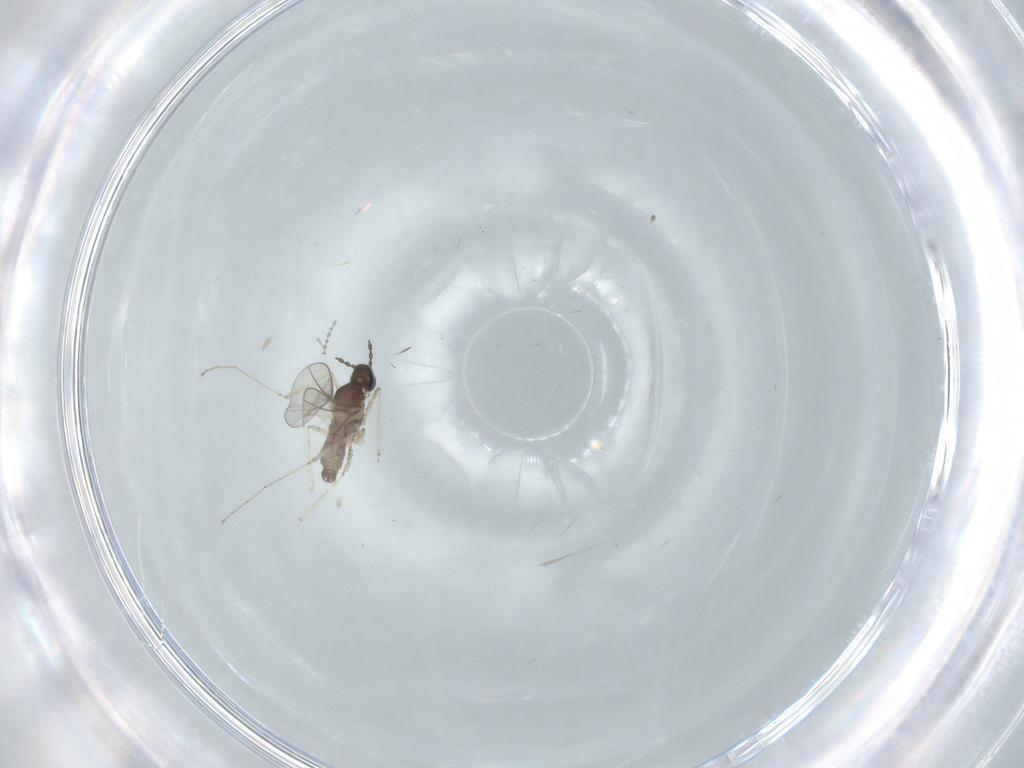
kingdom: Animalia
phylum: Arthropoda
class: Insecta
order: Diptera
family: Cecidomyiidae
